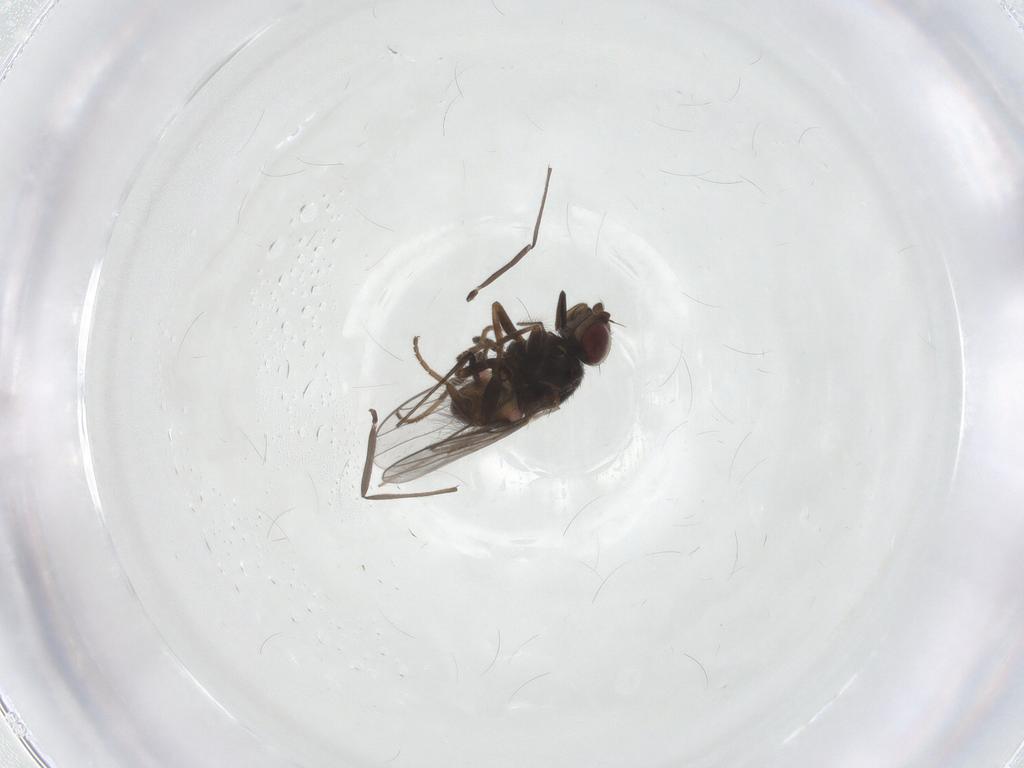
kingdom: Animalia
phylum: Arthropoda
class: Insecta
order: Diptera
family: Chloropidae
